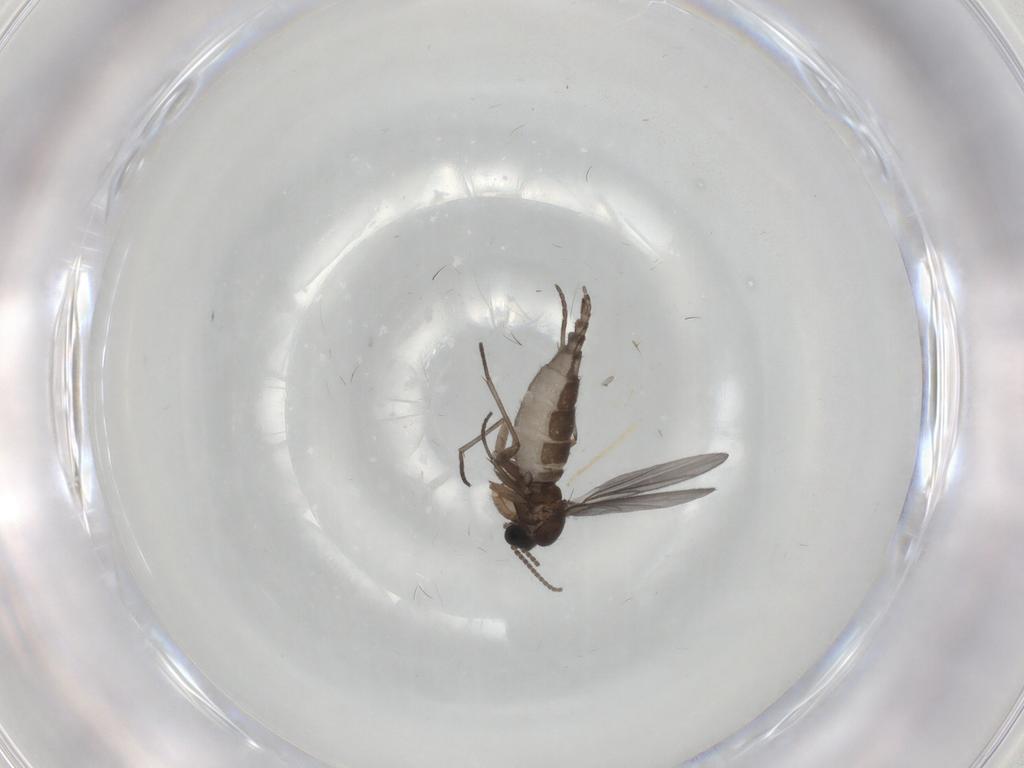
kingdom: Animalia
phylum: Arthropoda
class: Insecta
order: Diptera
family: Sciaridae
